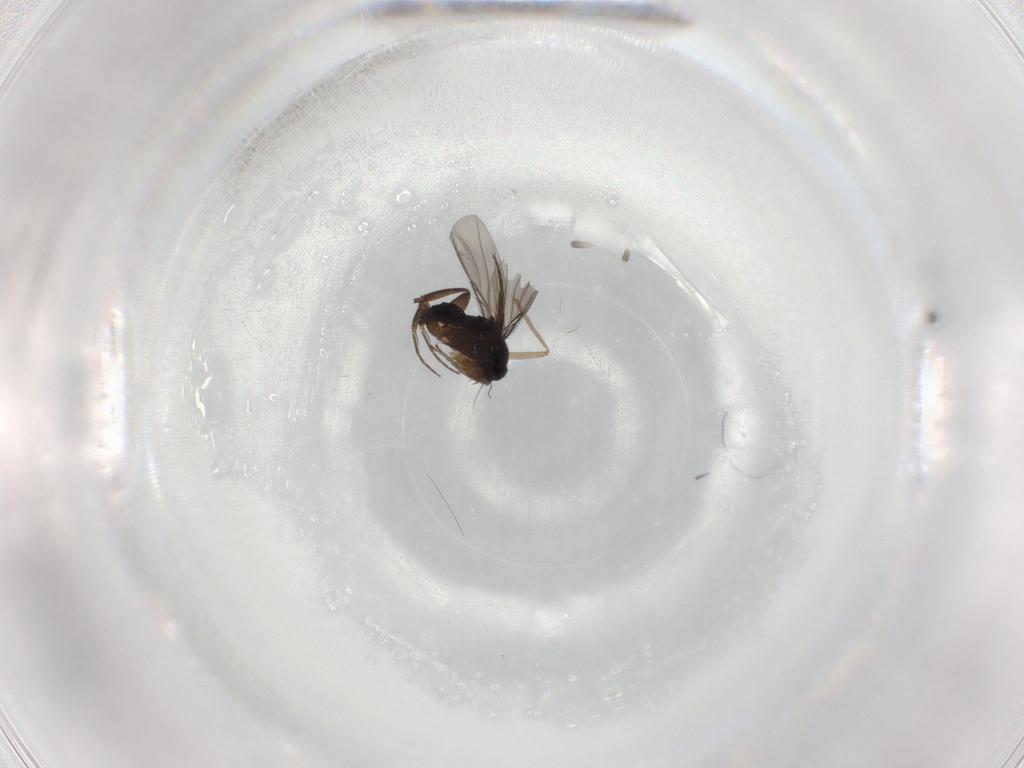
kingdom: Animalia
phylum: Arthropoda
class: Insecta
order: Diptera
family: Phoridae
